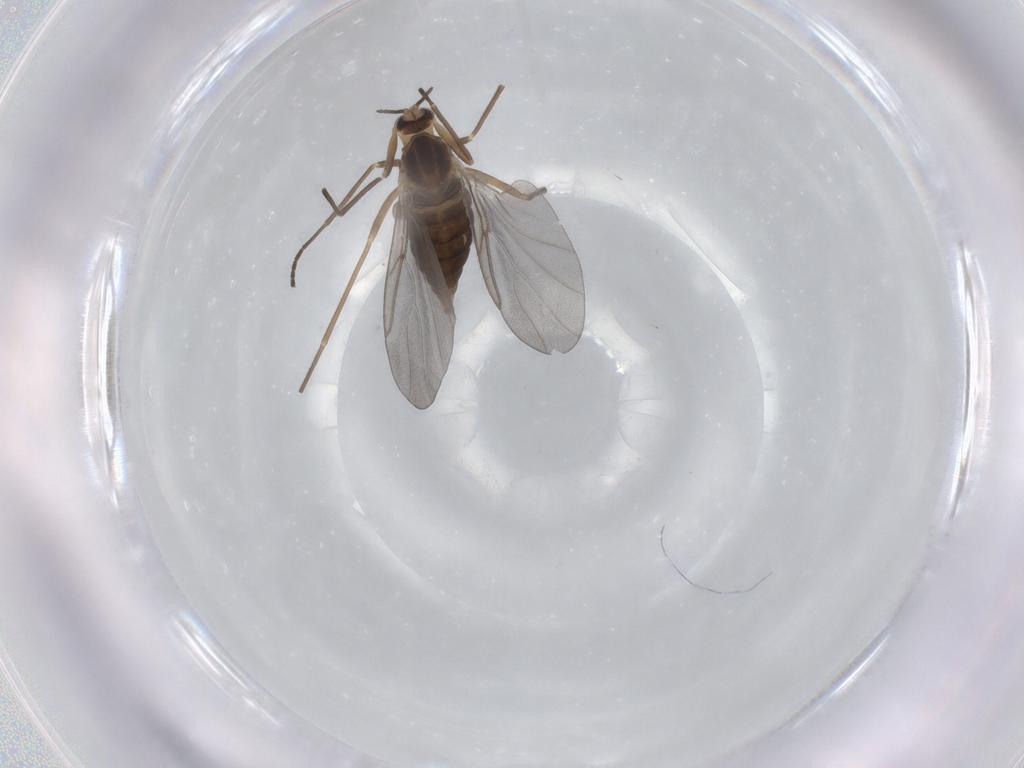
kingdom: Animalia
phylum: Arthropoda
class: Insecta
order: Diptera
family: Cecidomyiidae
